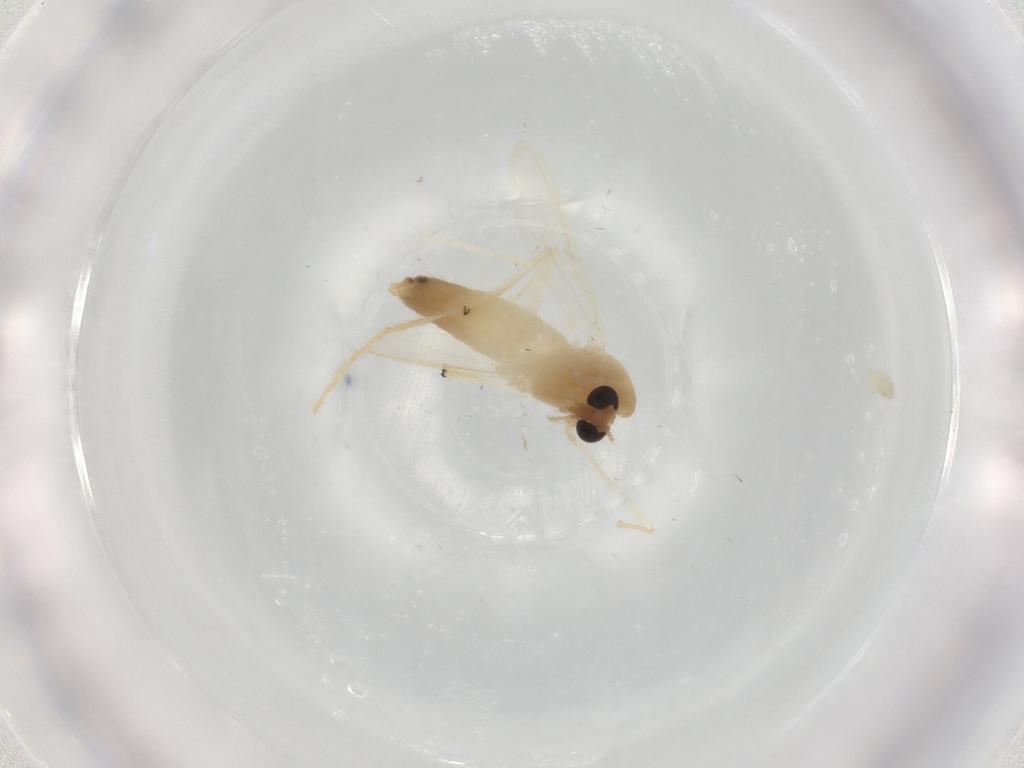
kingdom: Animalia
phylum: Arthropoda
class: Insecta
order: Diptera
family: Chironomidae
